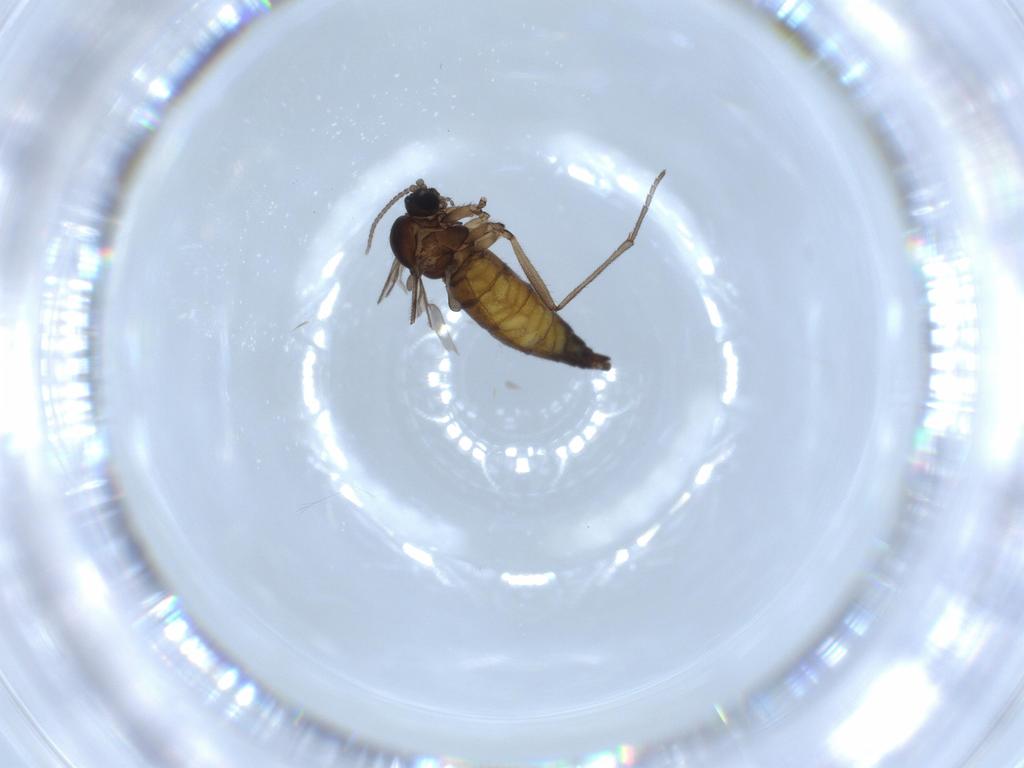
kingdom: Animalia
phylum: Arthropoda
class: Insecta
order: Diptera
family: Sciaridae
